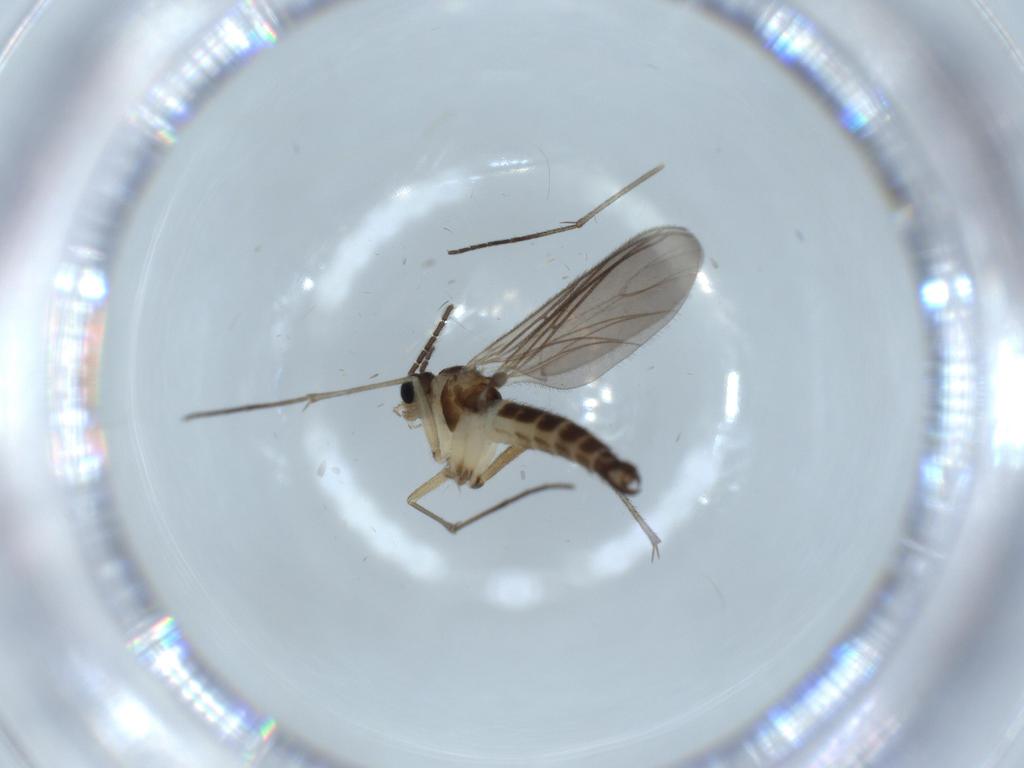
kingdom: Animalia
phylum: Arthropoda
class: Insecta
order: Diptera
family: Sciaridae
